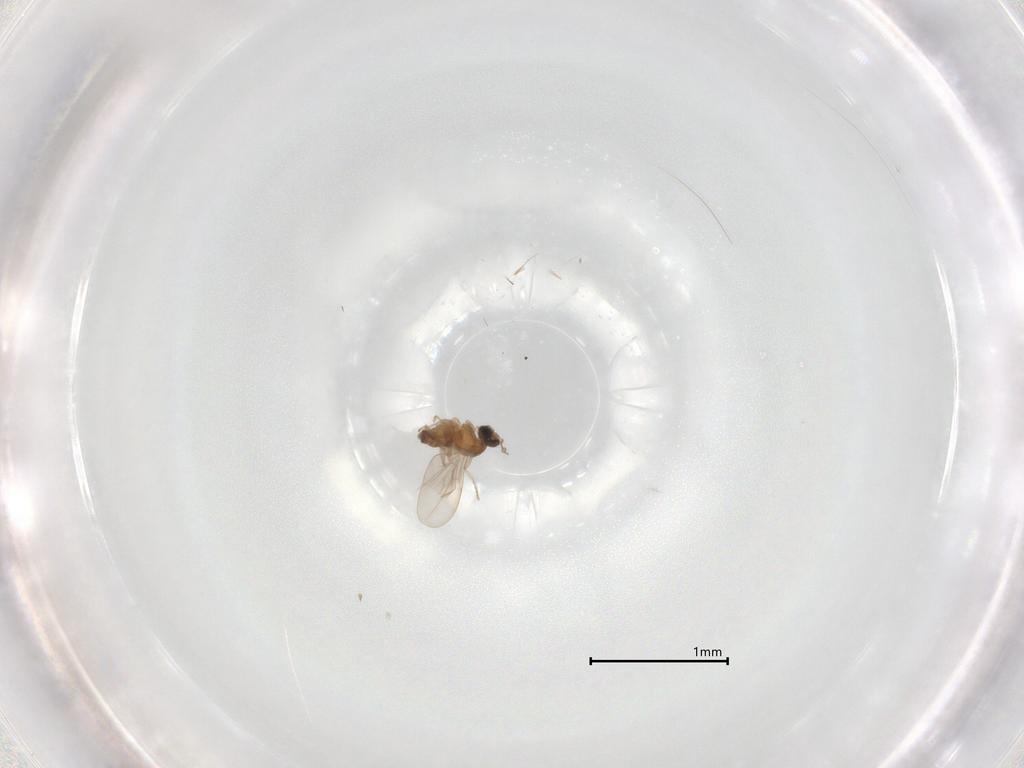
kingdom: Animalia
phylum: Arthropoda
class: Insecta
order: Diptera
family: Cecidomyiidae
